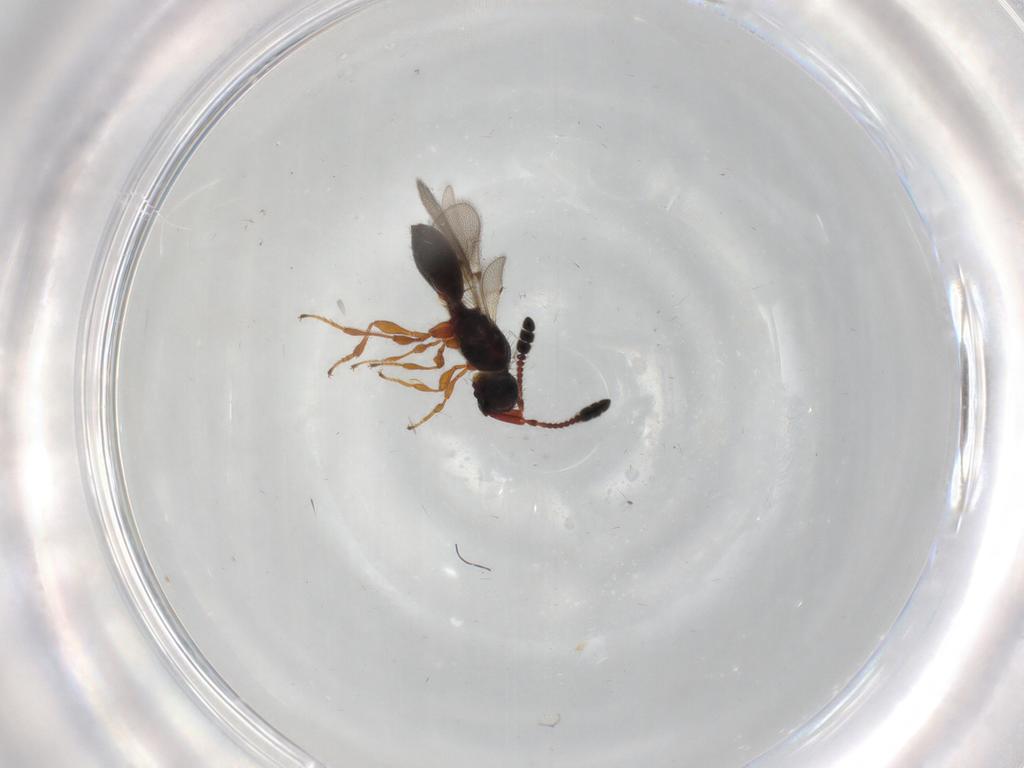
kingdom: Animalia
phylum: Arthropoda
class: Insecta
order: Hymenoptera
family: Diapriidae
